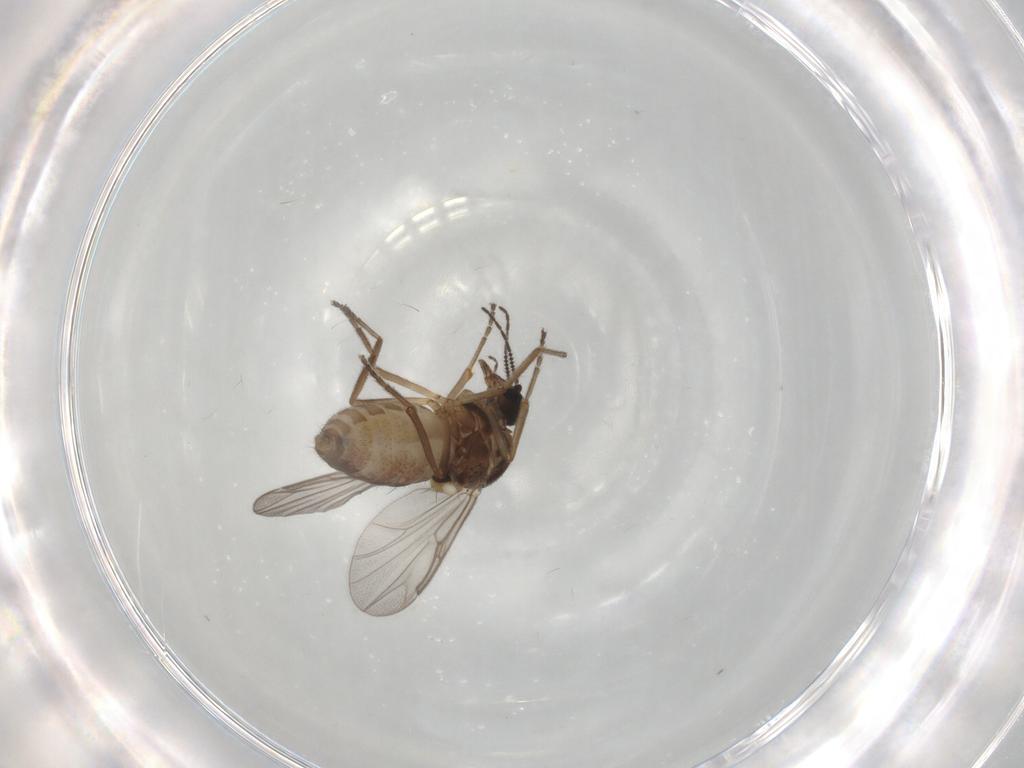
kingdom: Animalia
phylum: Arthropoda
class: Insecta
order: Diptera
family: Ceratopogonidae
